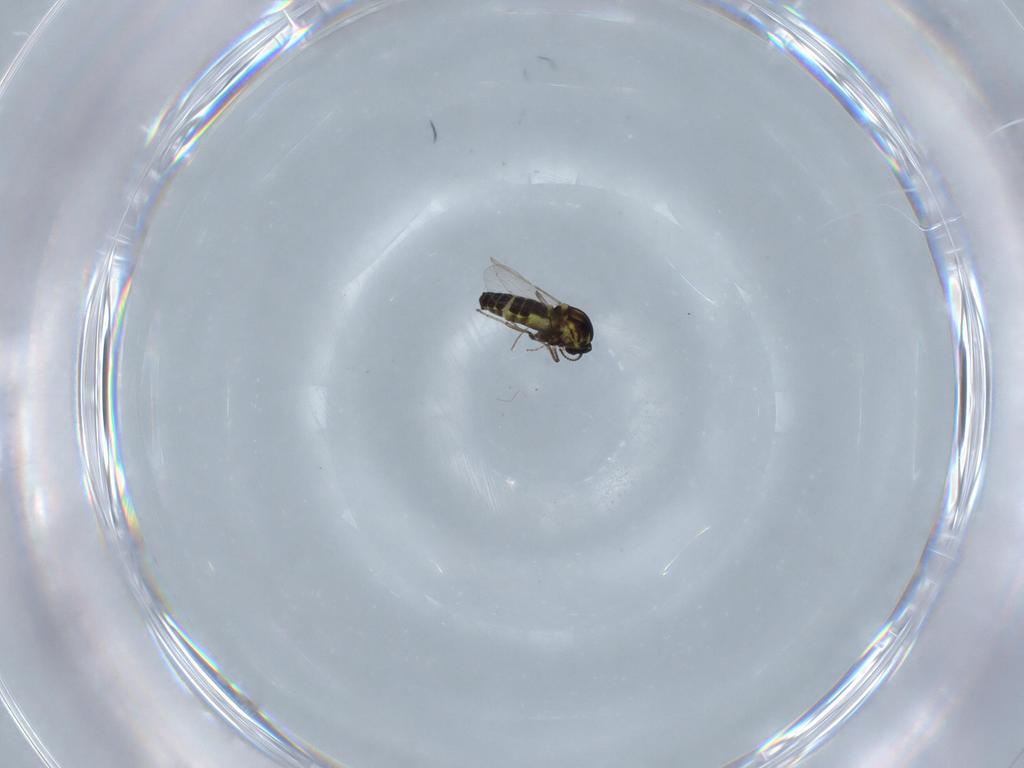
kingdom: Animalia
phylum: Arthropoda
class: Insecta
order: Diptera
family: Ceratopogonidae
